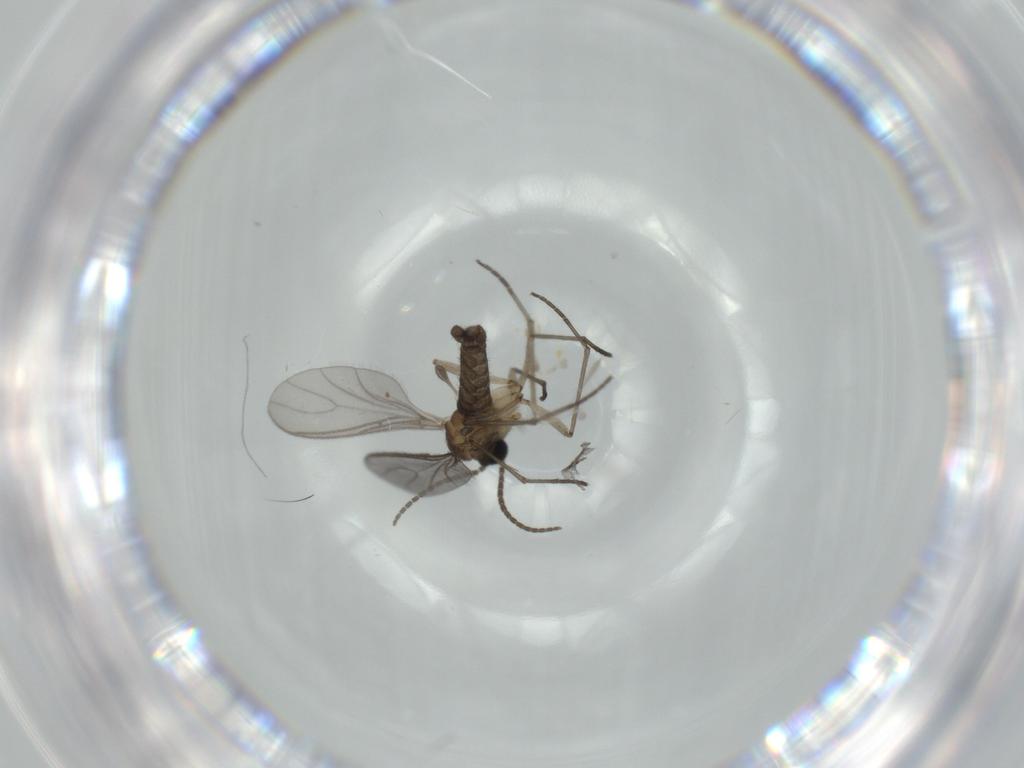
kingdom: Animalia
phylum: Arthropoda
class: Insecta
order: Diptera
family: Sciaridae
